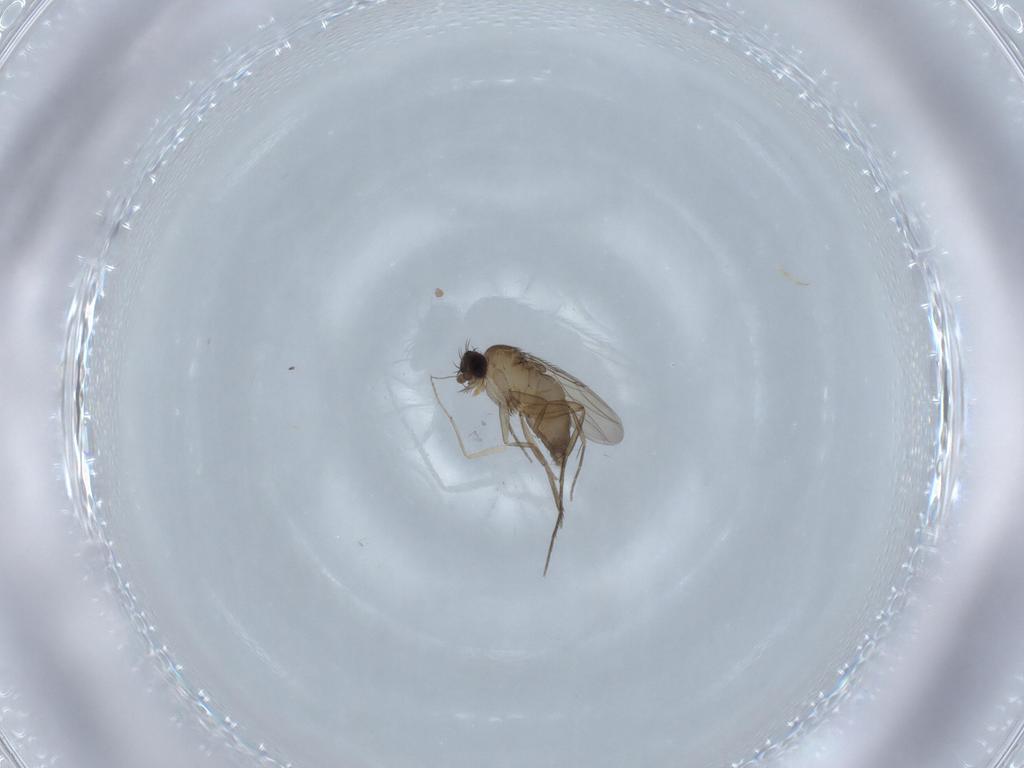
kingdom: Animalia
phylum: Arthropoda
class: Insecta
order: Diptera
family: Phoridae
